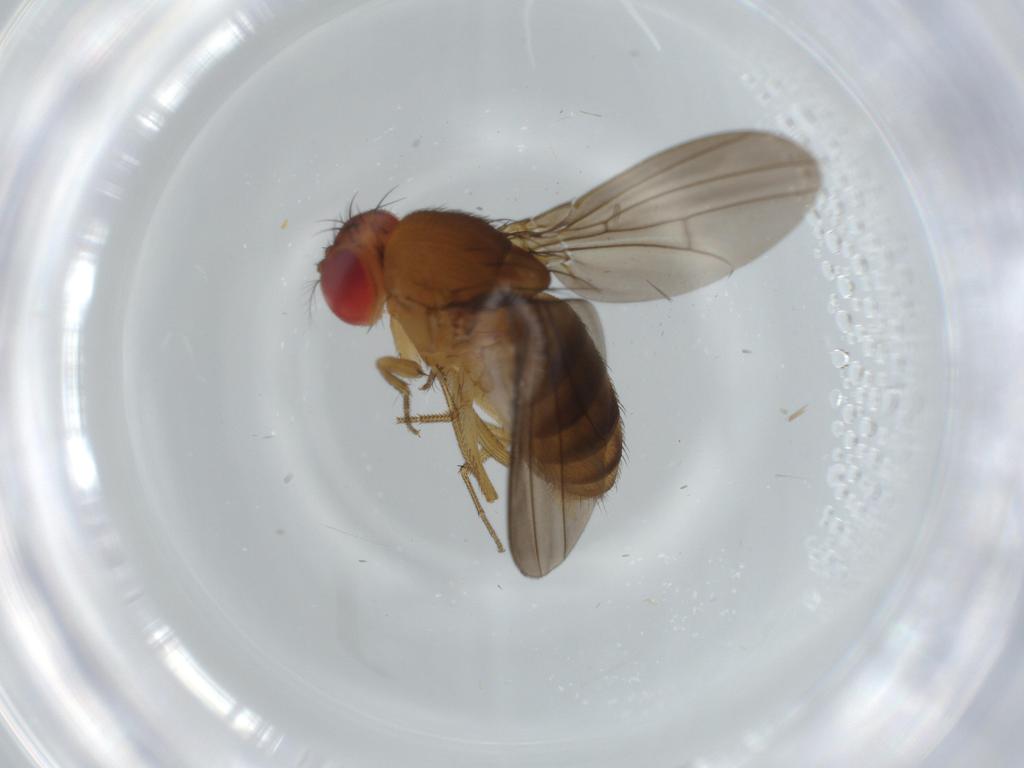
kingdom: Animalia
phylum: Arthropoda
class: Insecta
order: Diptera
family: Drosophilidae
